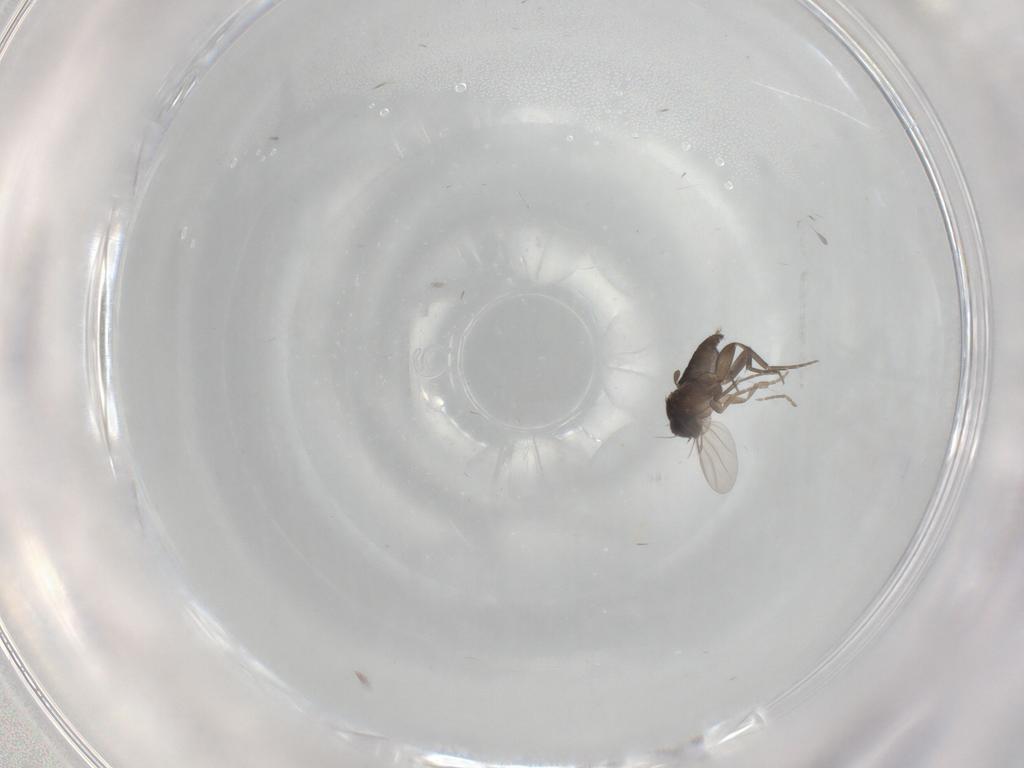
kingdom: Animalia
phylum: Arthropoda
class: Insecta
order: Diptera
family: Phoridae
